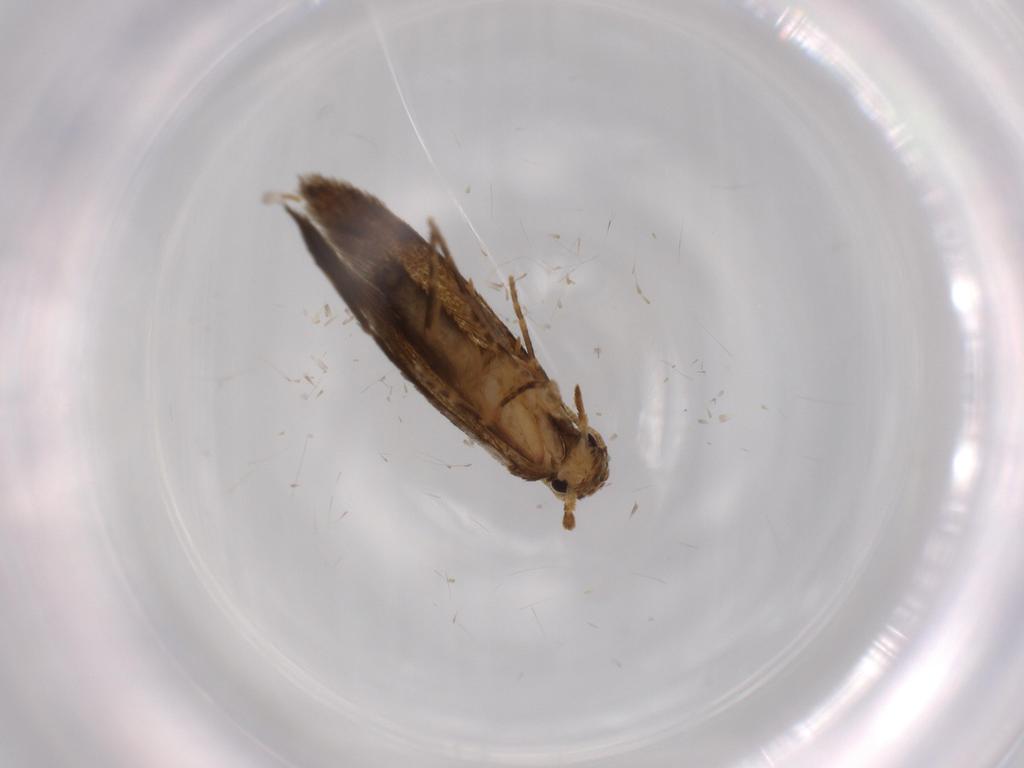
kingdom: Animalia
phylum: Arthropoda
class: Insecta
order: Lepidoptera
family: Tineidae
